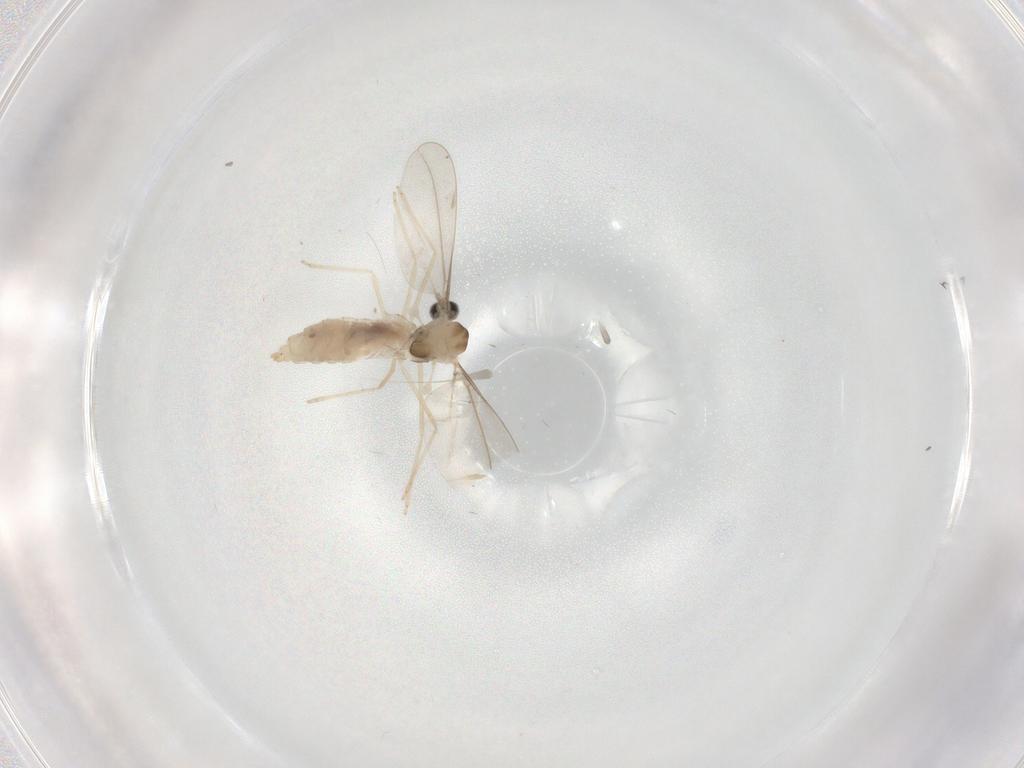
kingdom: Animalia
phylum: Arthropoda
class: Insecta
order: Diptera
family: Cecidomyiidae
